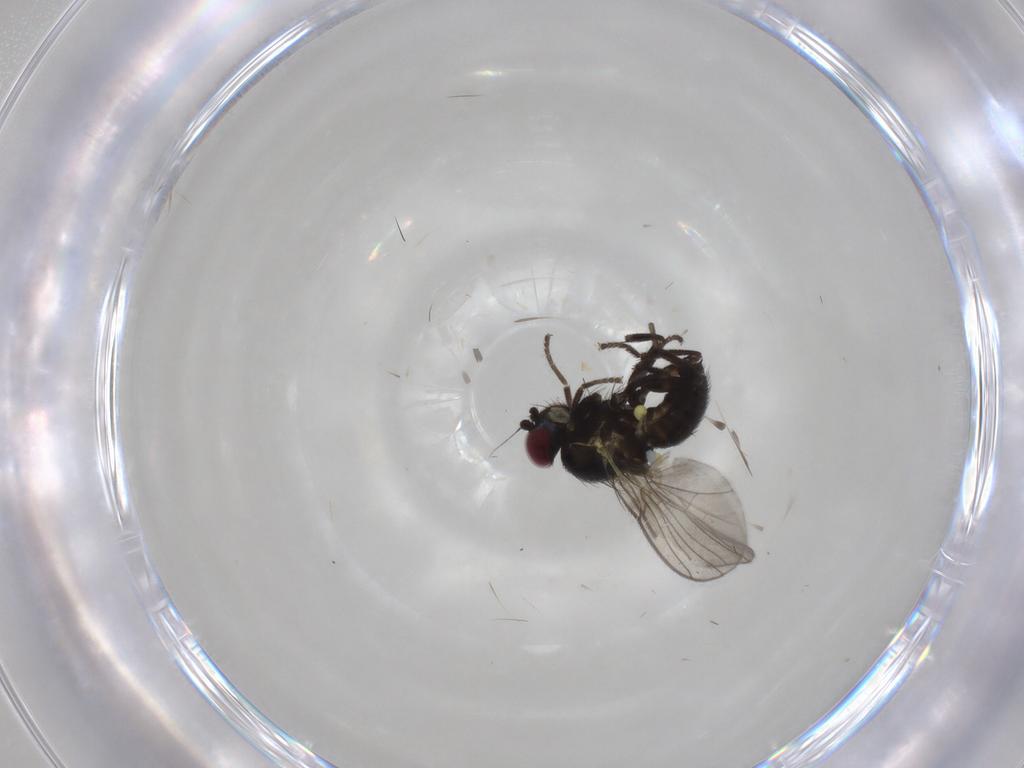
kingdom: Animalia
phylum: Arthropoda
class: Insecta
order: Diptera
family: Agromyzidae
